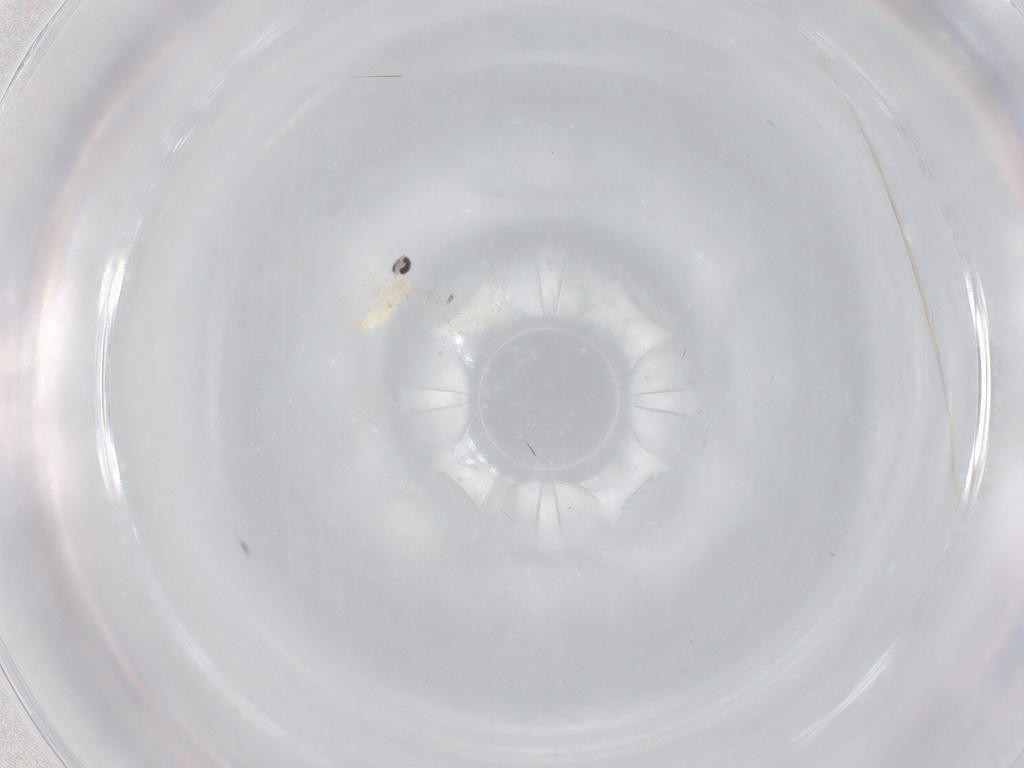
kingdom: Animalia
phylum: Arthropoda
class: Insecta
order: Diptera
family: Cecidomyiidae
